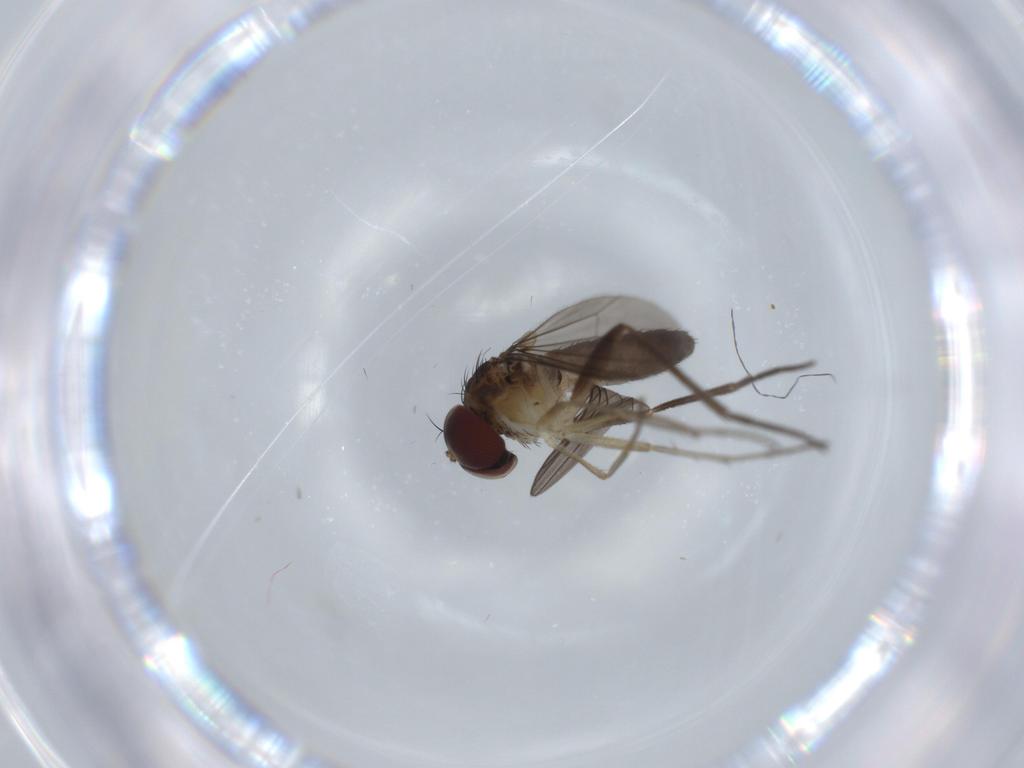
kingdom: Animalia
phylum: Arthropoda
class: Insecta
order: Diptera
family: Dolichopodidae
